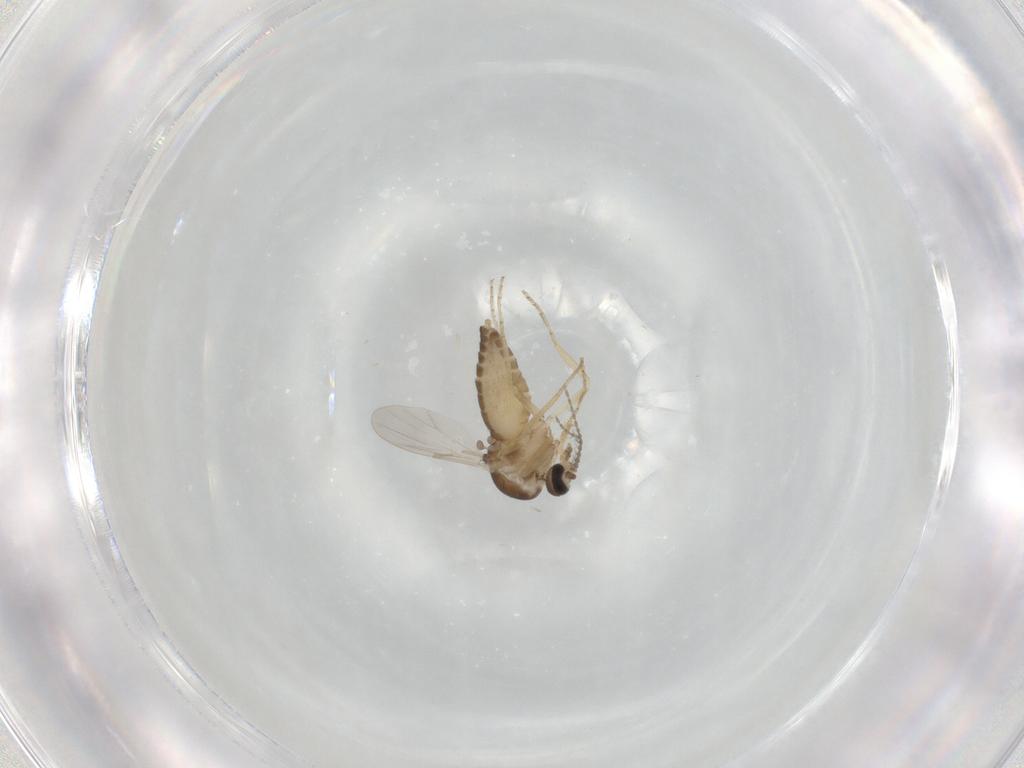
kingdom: Animalia
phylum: Arthropoda
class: Insecta
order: Diptera
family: Ceratopogonidae
